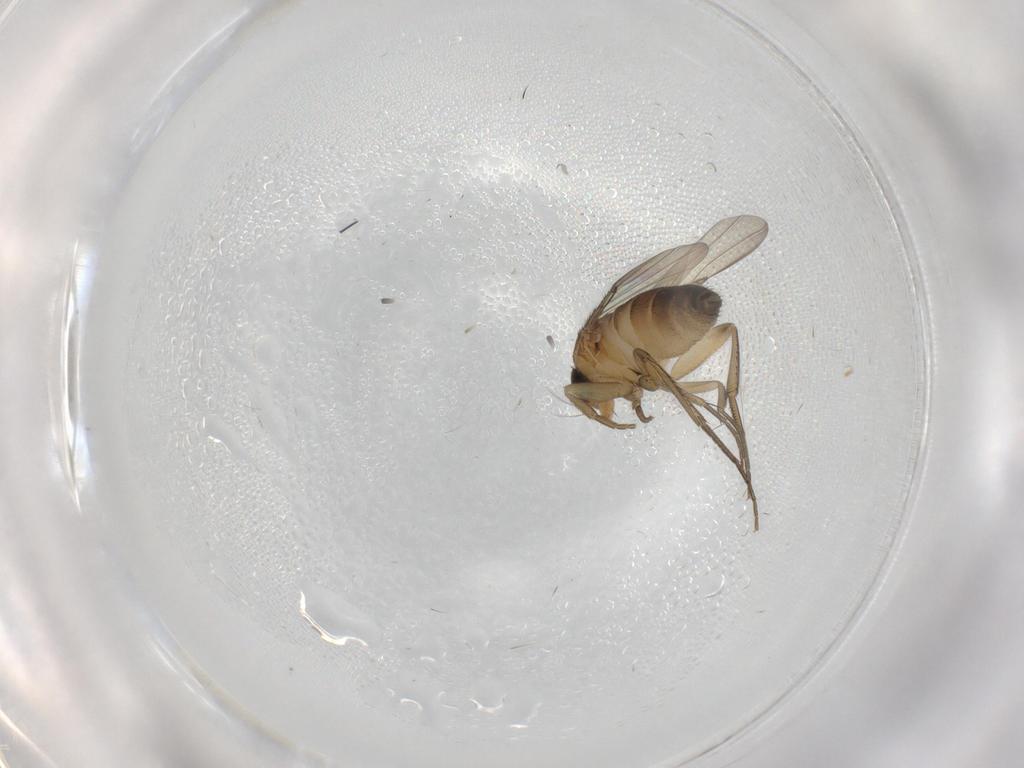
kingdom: Animalia
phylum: Arthropoda
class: Insecta
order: Diptera
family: Phoridae
